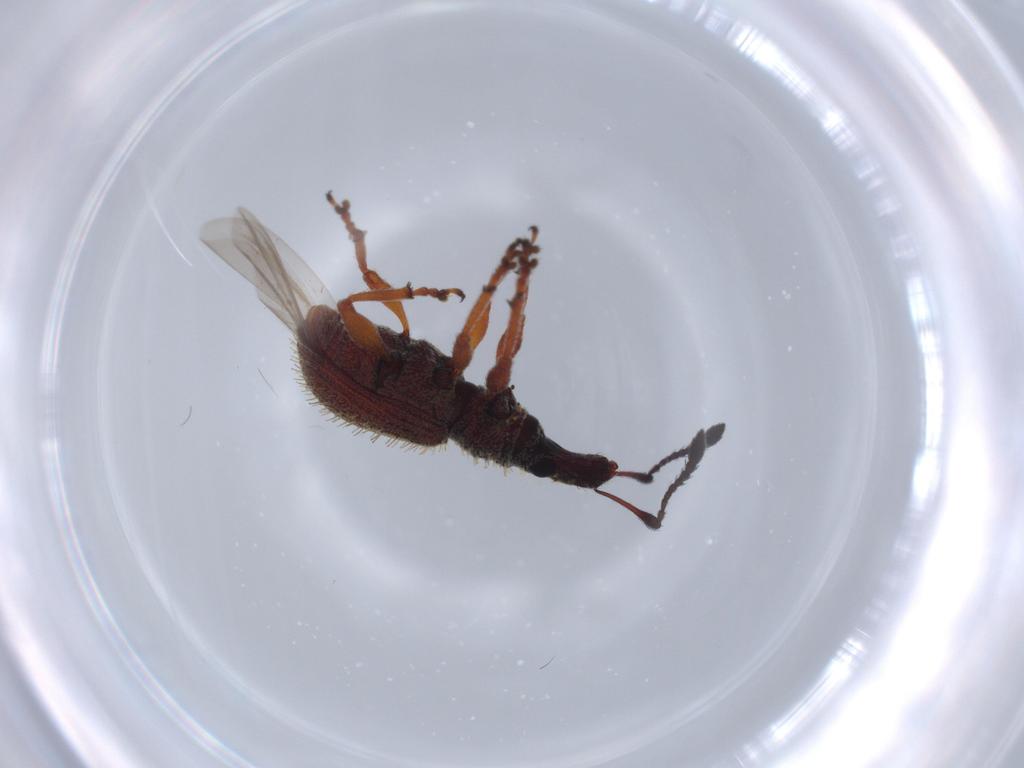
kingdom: Animalia
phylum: Arthropoda
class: Insecta
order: Coleoptera
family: Curculionidae
